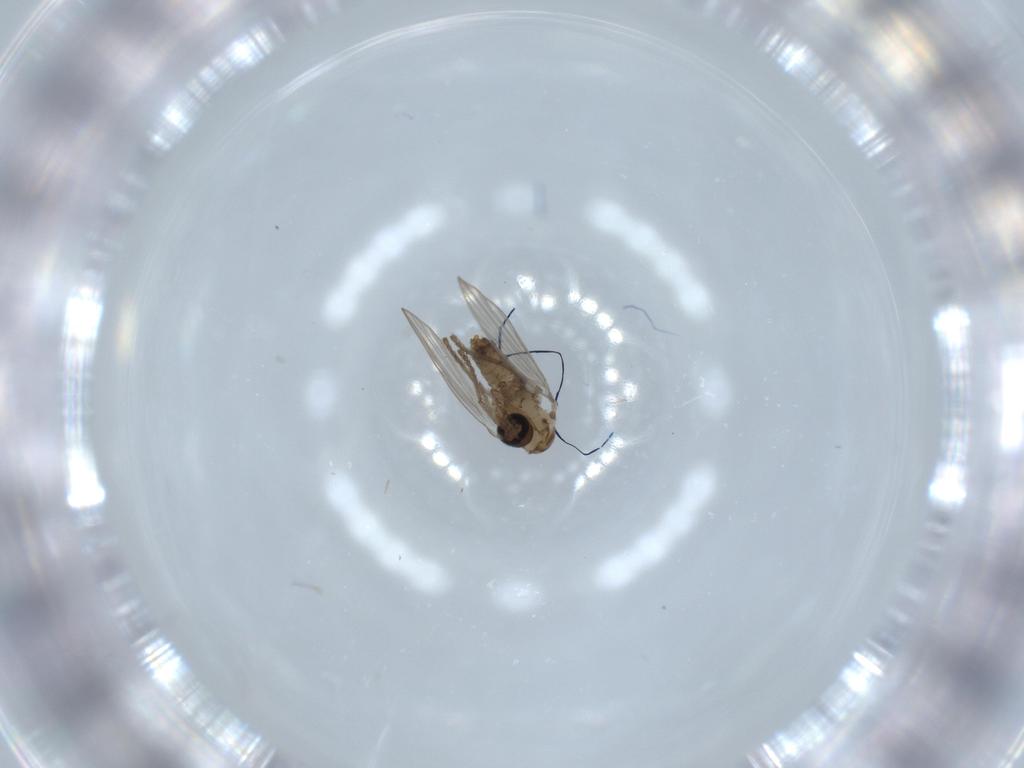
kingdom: Animalia
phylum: Arthropoda
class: Insecta
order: Diptera
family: Psychodidae
